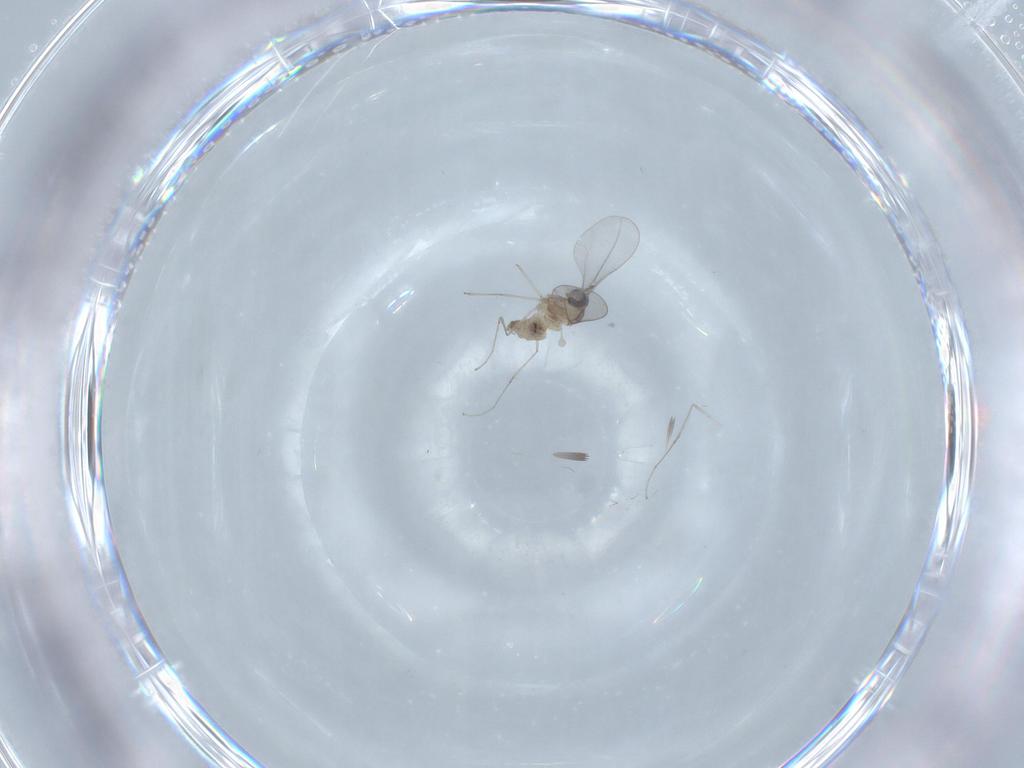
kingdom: Animalia
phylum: Arthropoda
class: Insecta
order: Diptera
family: Cecidomyiidae
